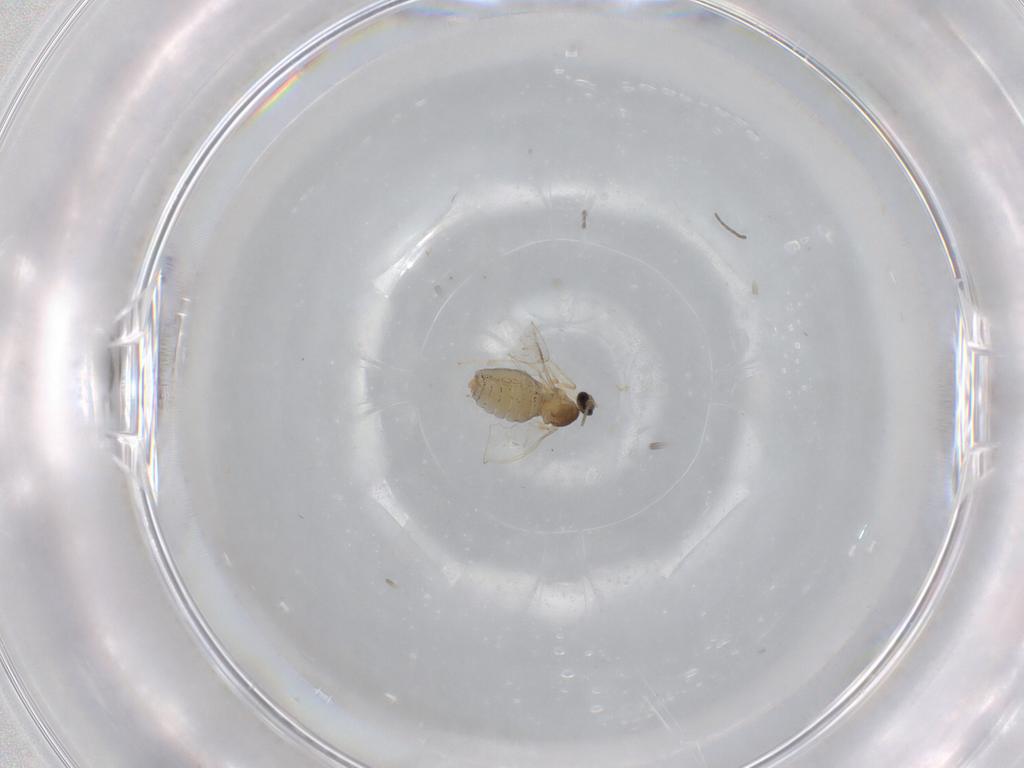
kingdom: Animalia
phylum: Arthropoda
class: Insecta
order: Diptera
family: Cecidomyiidae
